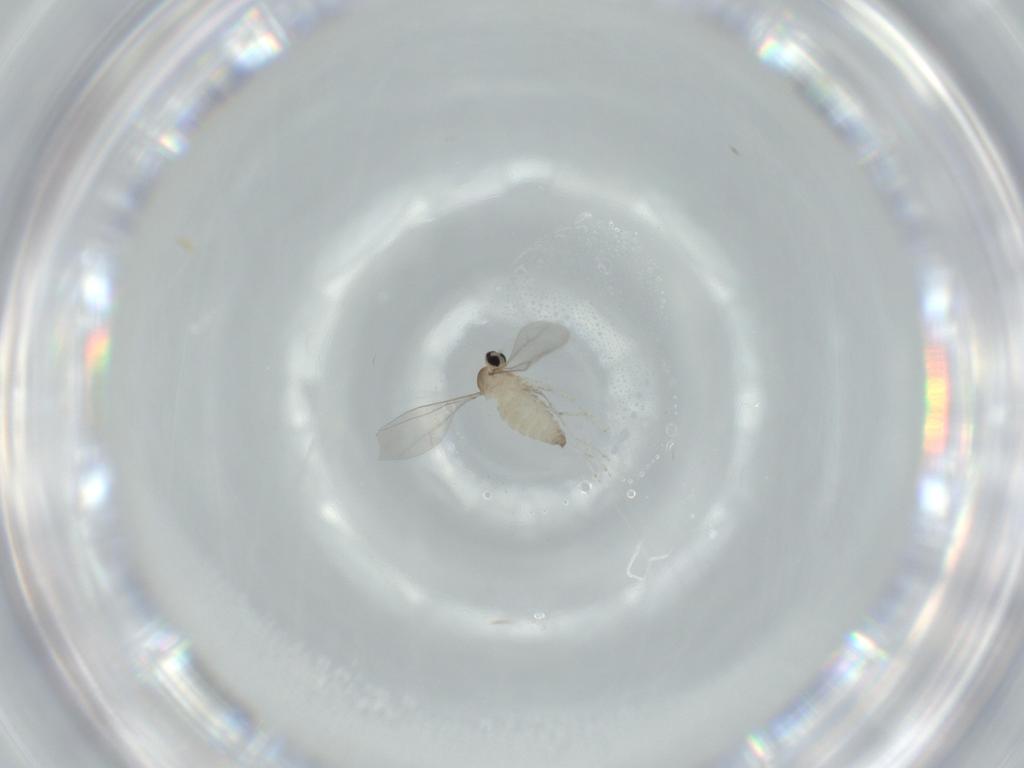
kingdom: Animalia
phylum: Arthropoda
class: Insecta
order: Diptera
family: Cecidomyiidae
